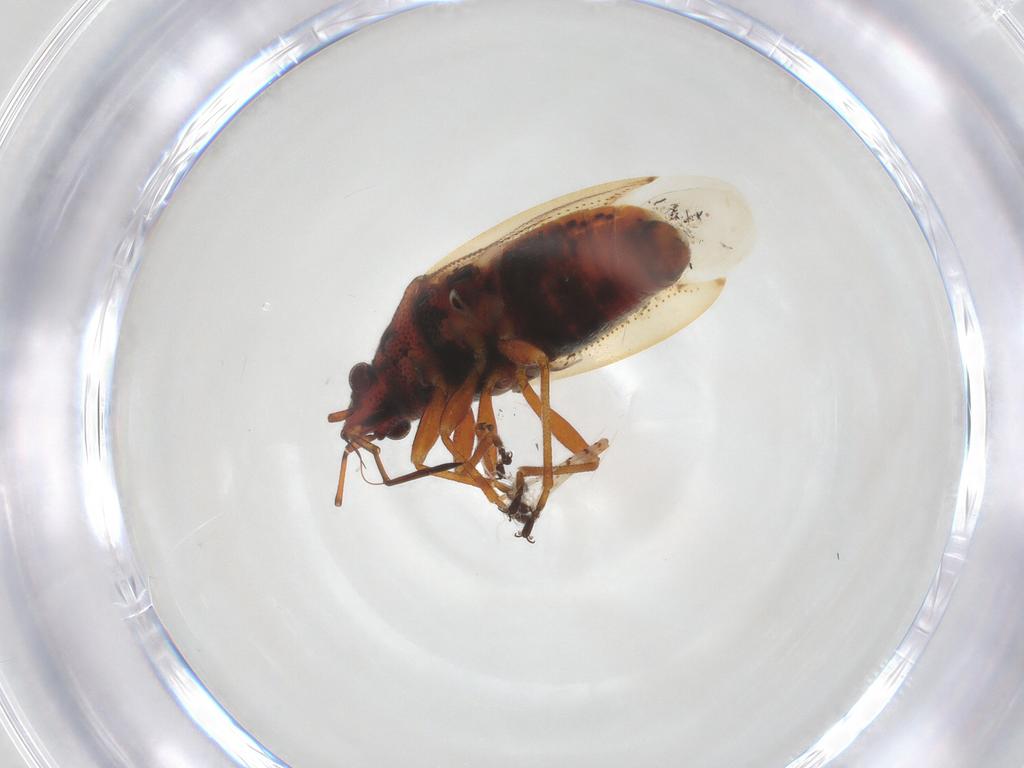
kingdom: Animalia
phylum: Arthropoda
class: Insecta
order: Hemiptera
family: Lygaeidae
